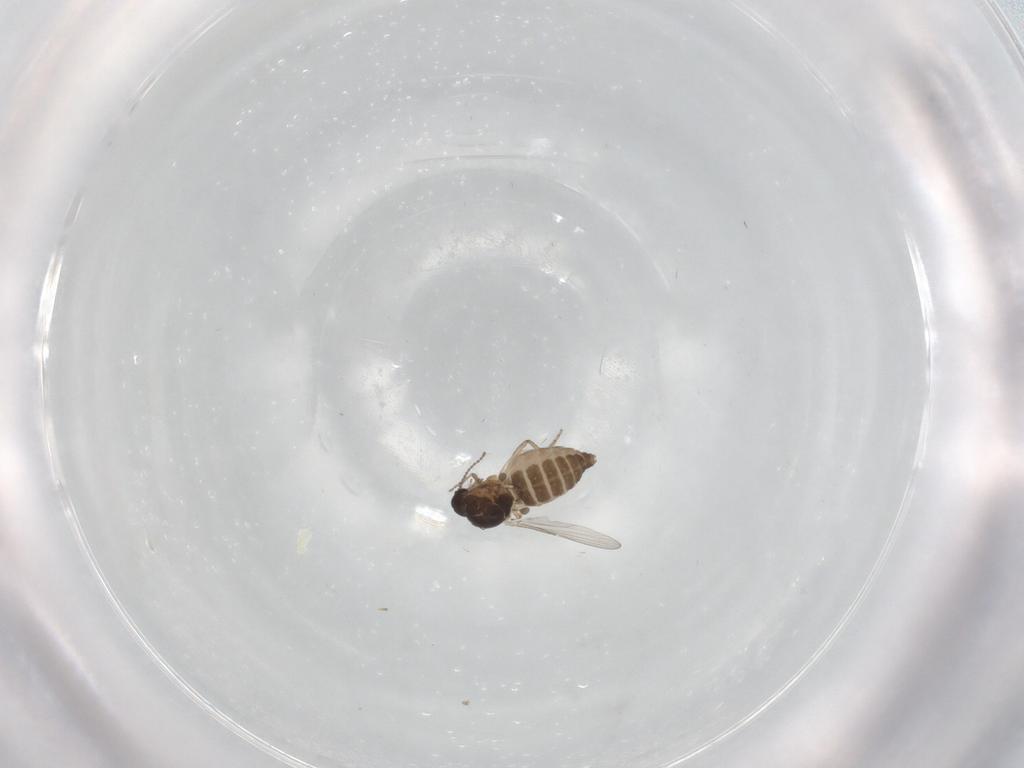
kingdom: Animalia
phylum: Arthropoda
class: Insecta
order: Diptera
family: Ceratopogonidae
